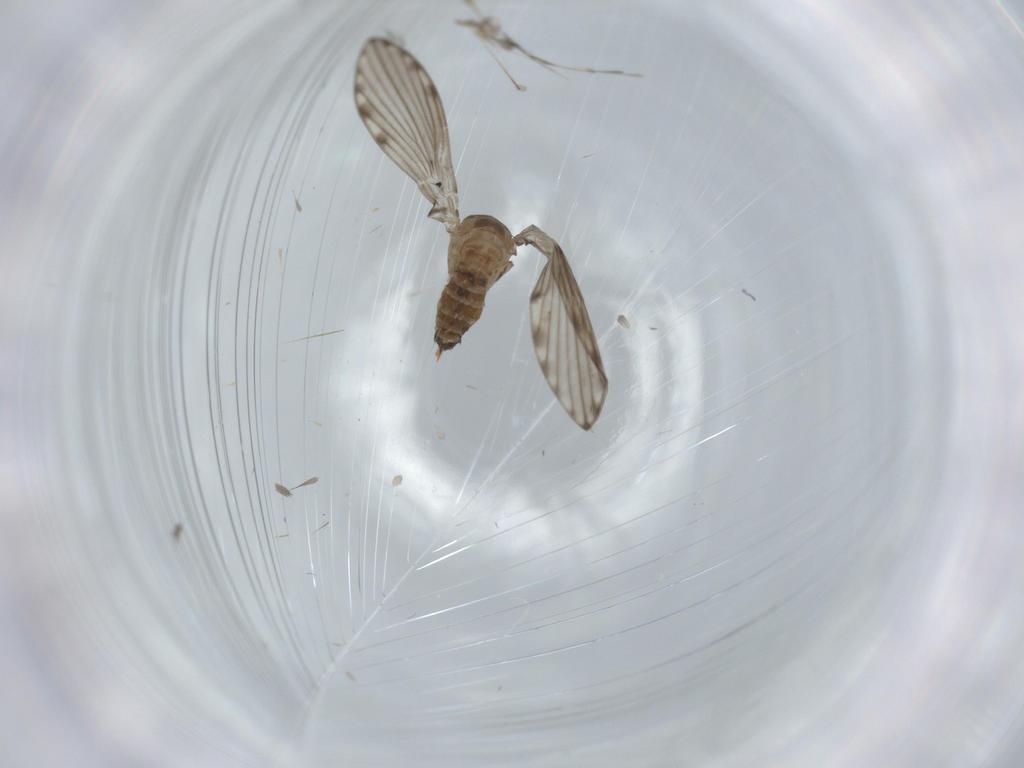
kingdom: Animalia
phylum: Arthropoda
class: Insecta
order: Diptera
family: Psychodidae
